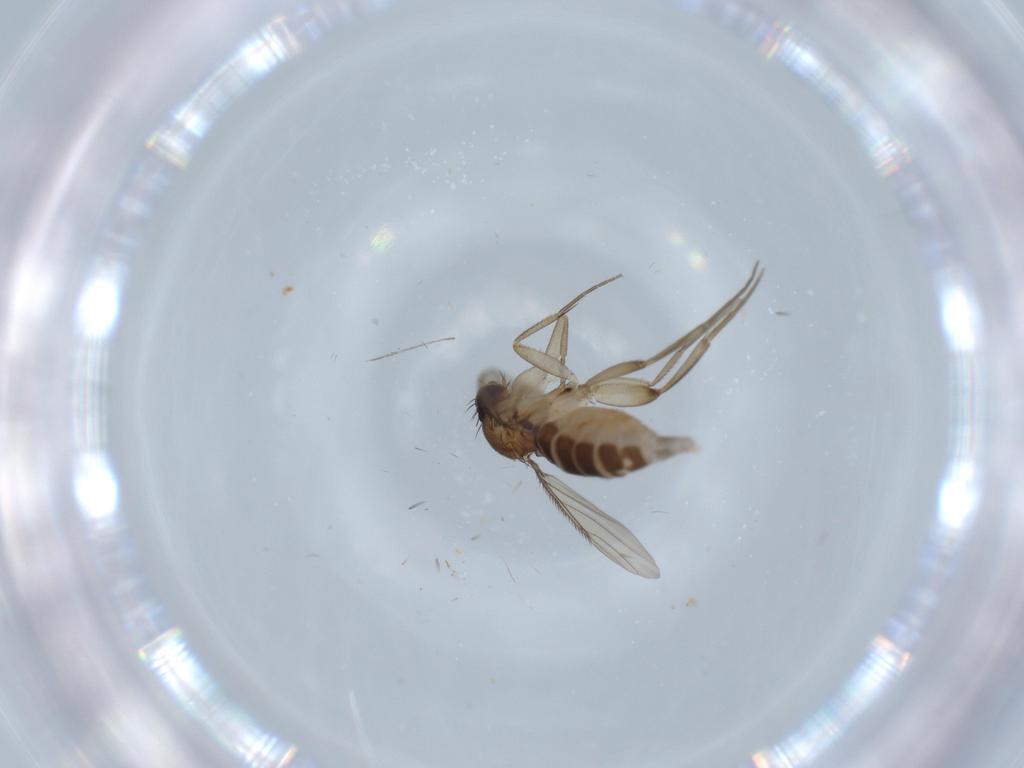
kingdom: Animalia
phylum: Arthropoda
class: Insecta
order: Diptera
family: Phoridae
